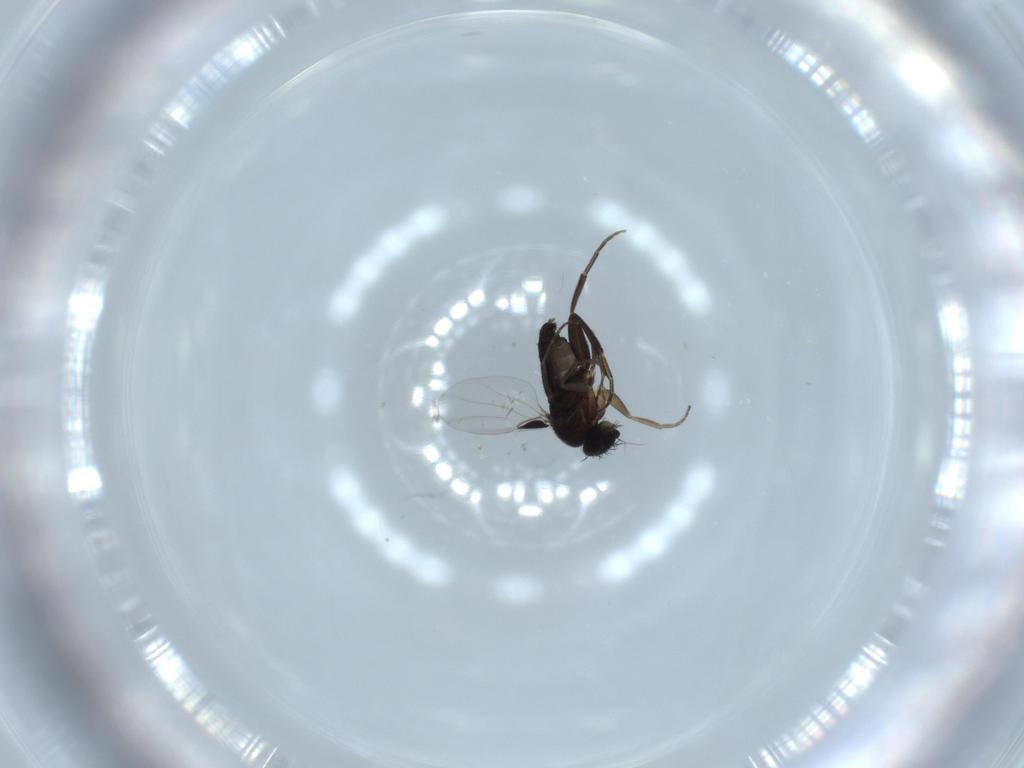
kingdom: Animalia
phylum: Arthropoda
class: Insecta
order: Diptera
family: Phoridae
